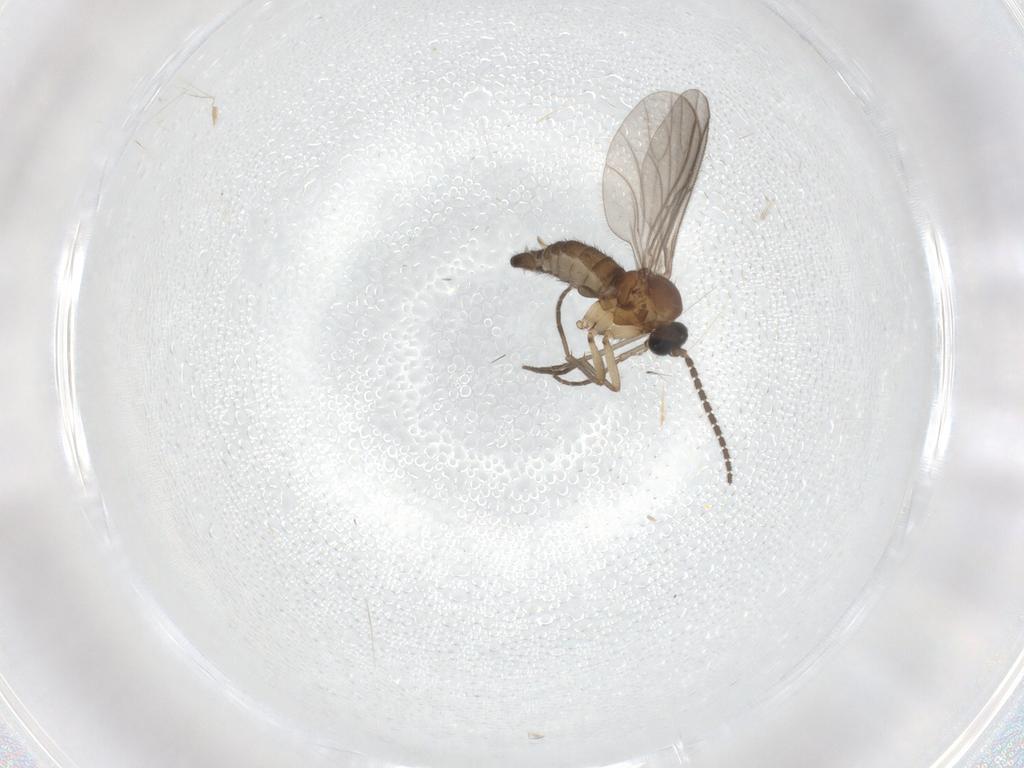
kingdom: Animalia
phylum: Arthropoda
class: Insecta
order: Diptera
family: Sciaridae
